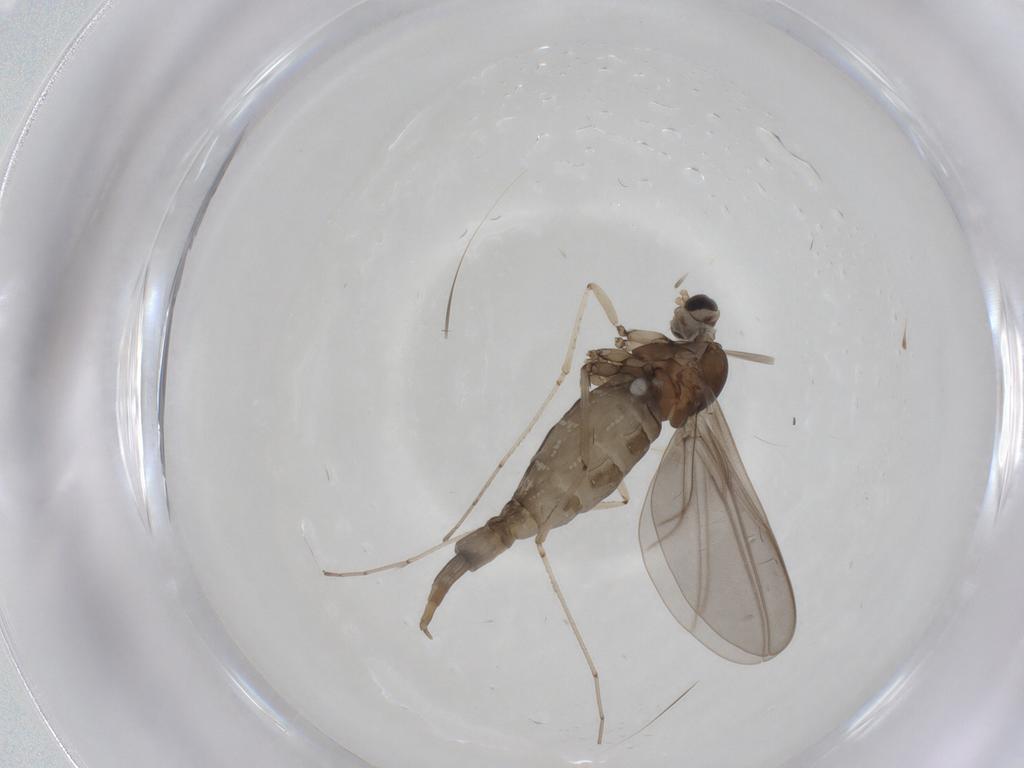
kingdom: Animalia
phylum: Arthropoda
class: Insecta
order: Diptera
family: Cecidomyiidae
